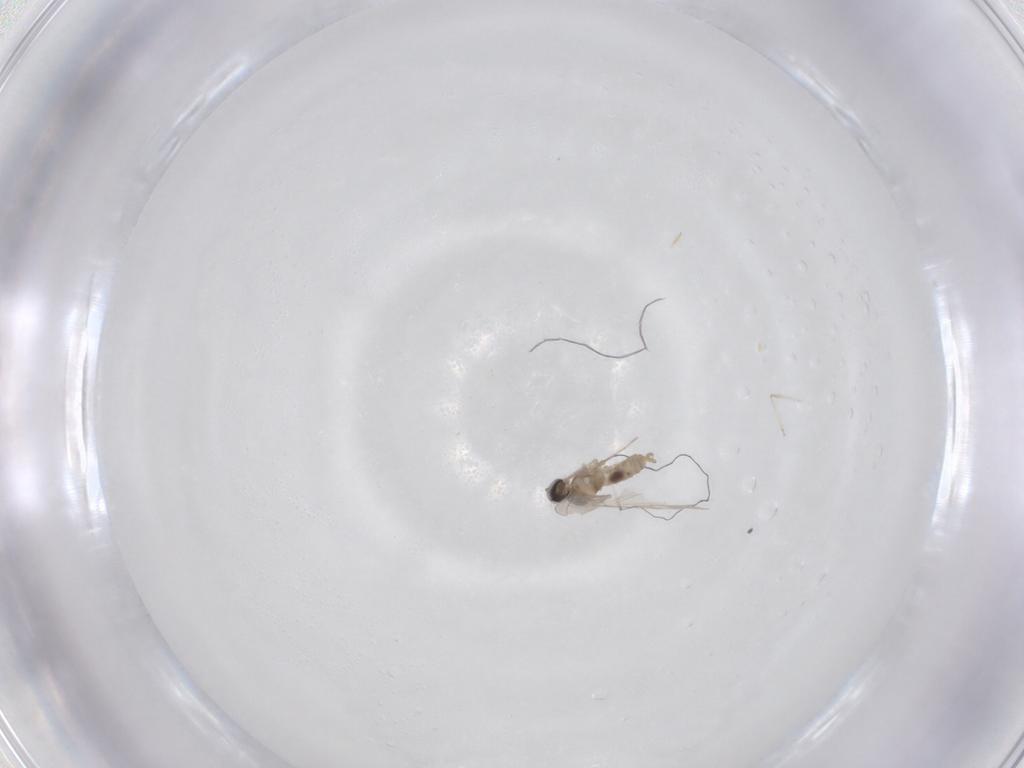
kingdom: Animalia
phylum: Arthropoda
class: Insecta
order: Diptera
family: Cecidomyiidae
